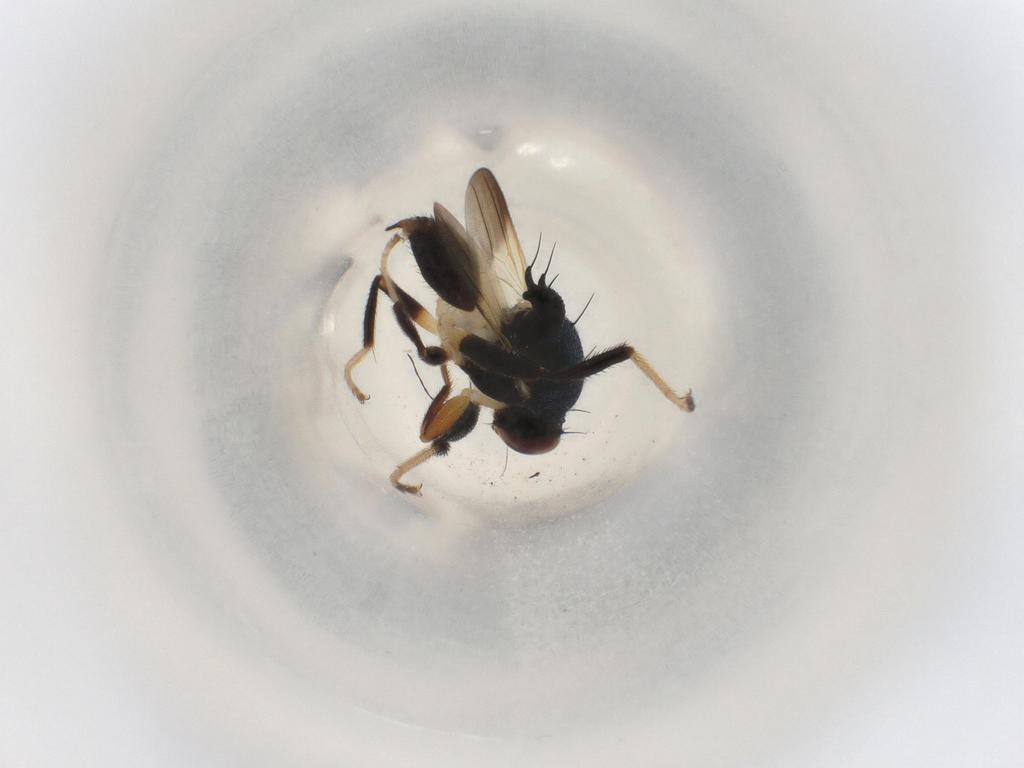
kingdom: Animalia
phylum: Arthropoda
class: Insecta
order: Diptera
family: Chloropidae
